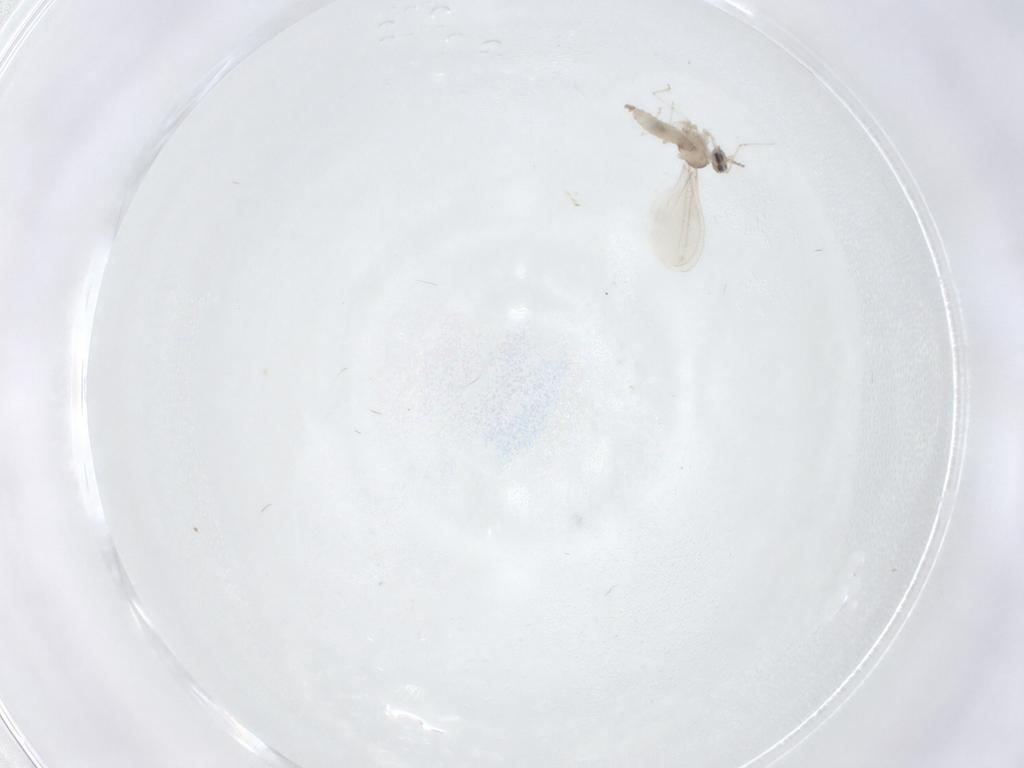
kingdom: Animalia
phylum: Arthropoda
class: Insecta
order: Diptera
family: Cecidomyiidae
